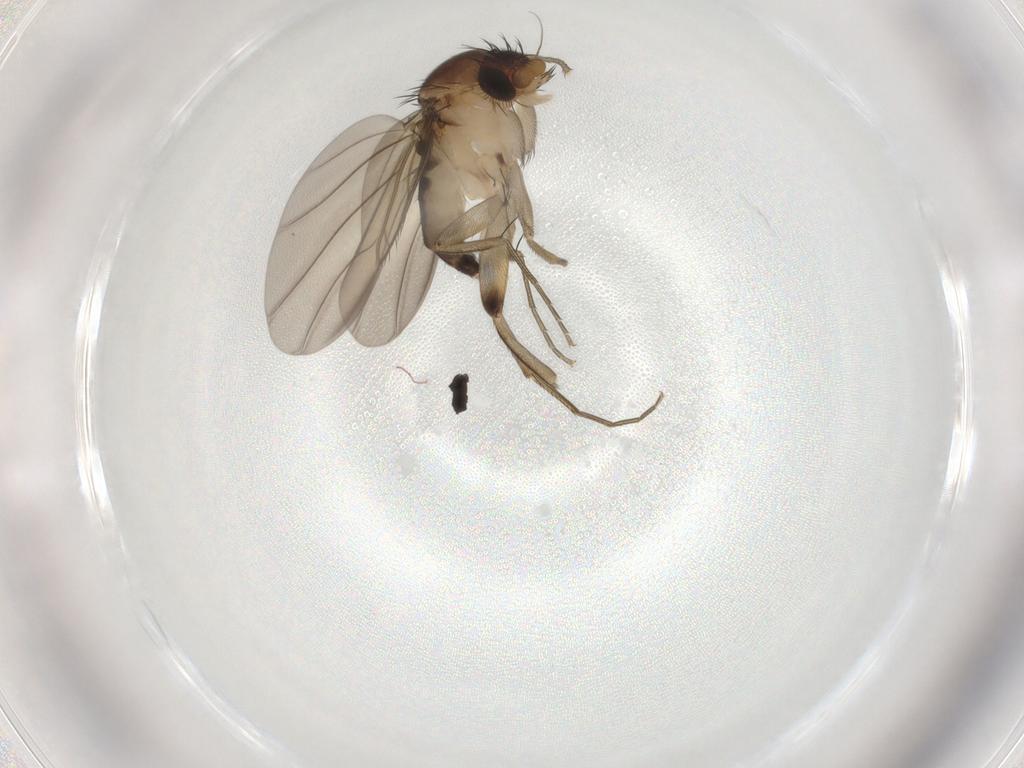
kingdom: Animalia
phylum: Arthropoda
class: Insecta
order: Diptera
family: Phoridae
